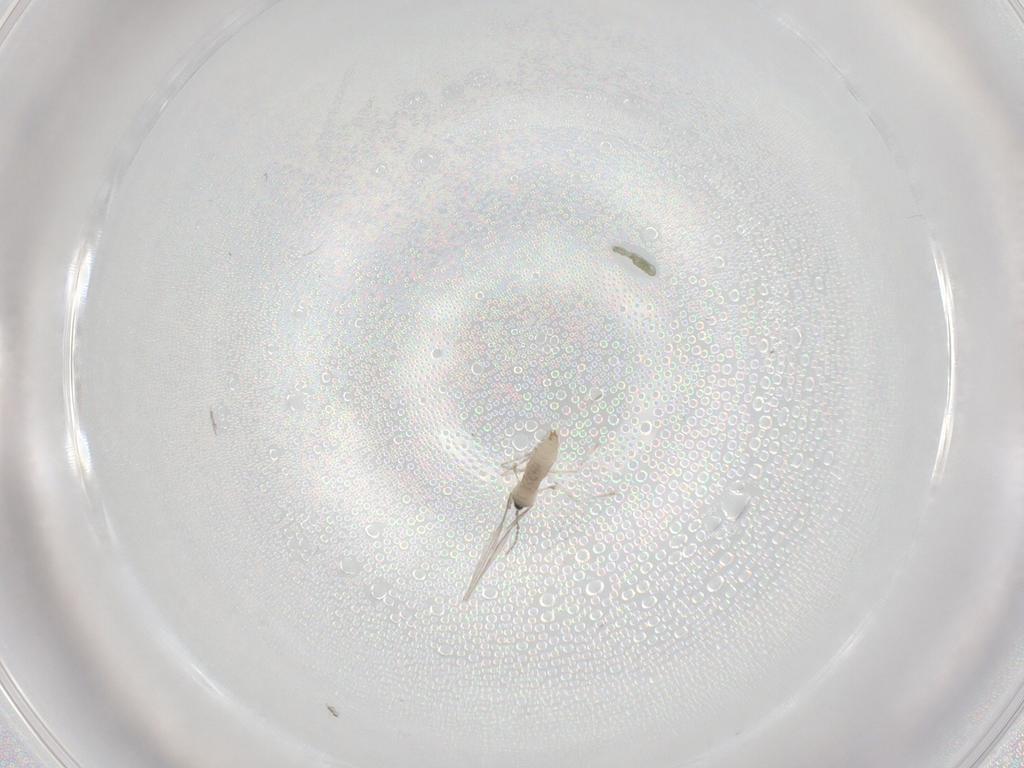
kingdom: Animalia
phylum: Arthropoda
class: Insecta
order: Diptera
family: Cecidomyiidae
